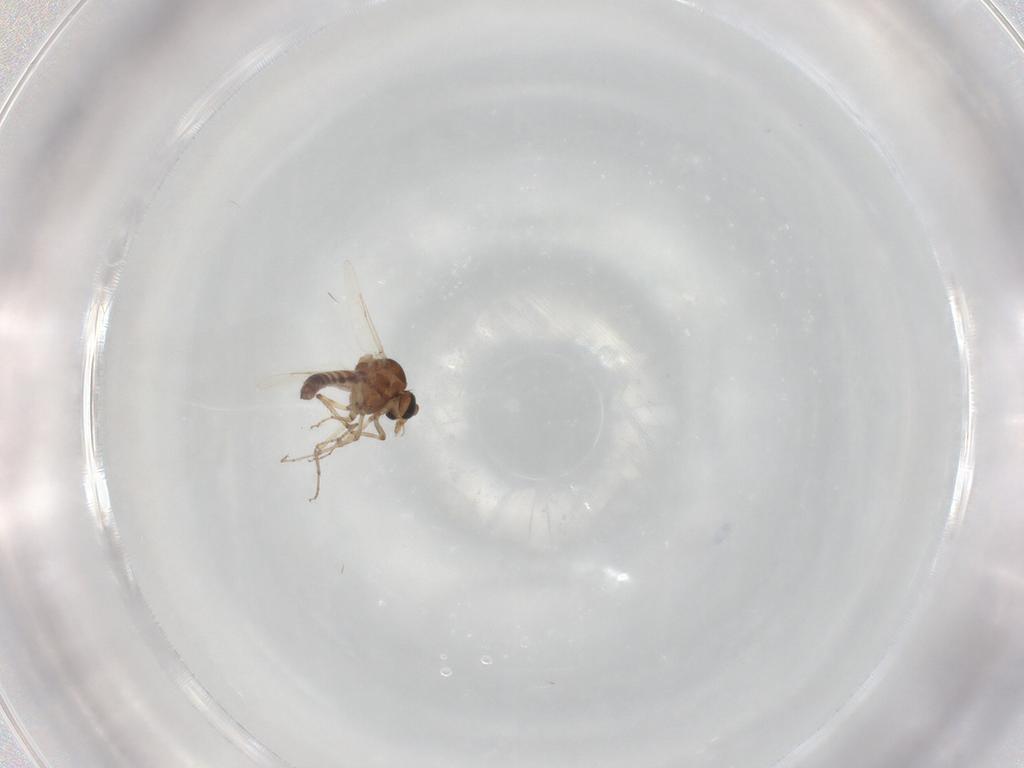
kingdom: Animalia
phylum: Arthropoda
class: Insecta
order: Diptera
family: Ceratopogonidae
